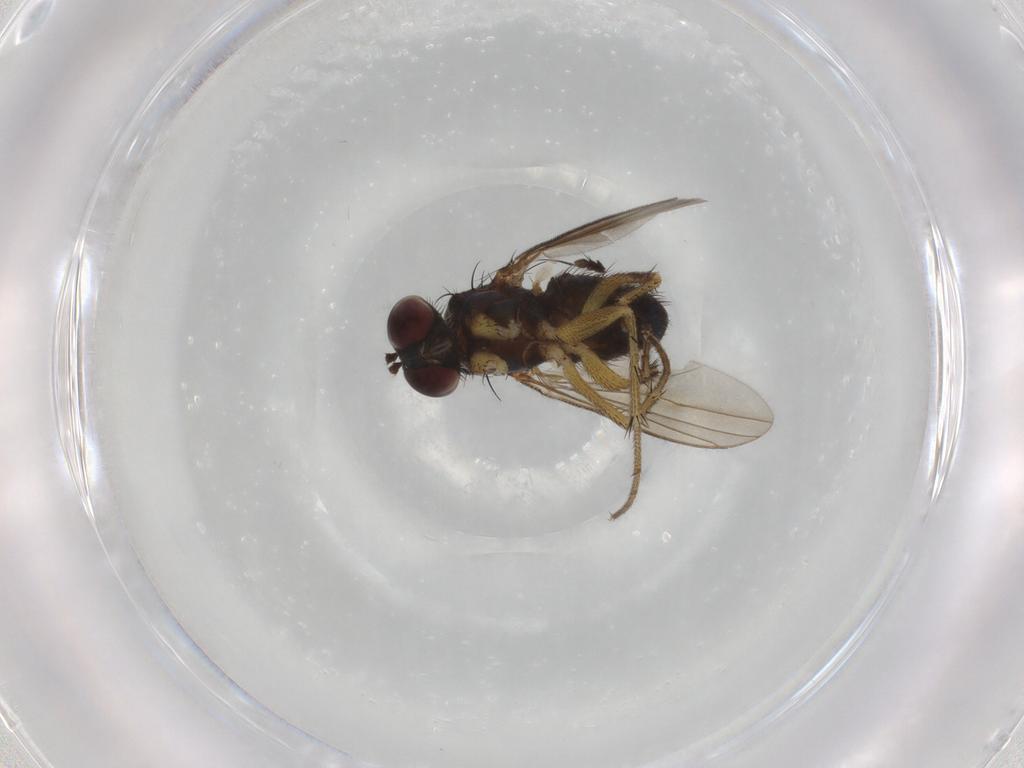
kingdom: Animalia
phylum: Arthropoda
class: Insecta
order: Diptera
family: Dolichopodidae
